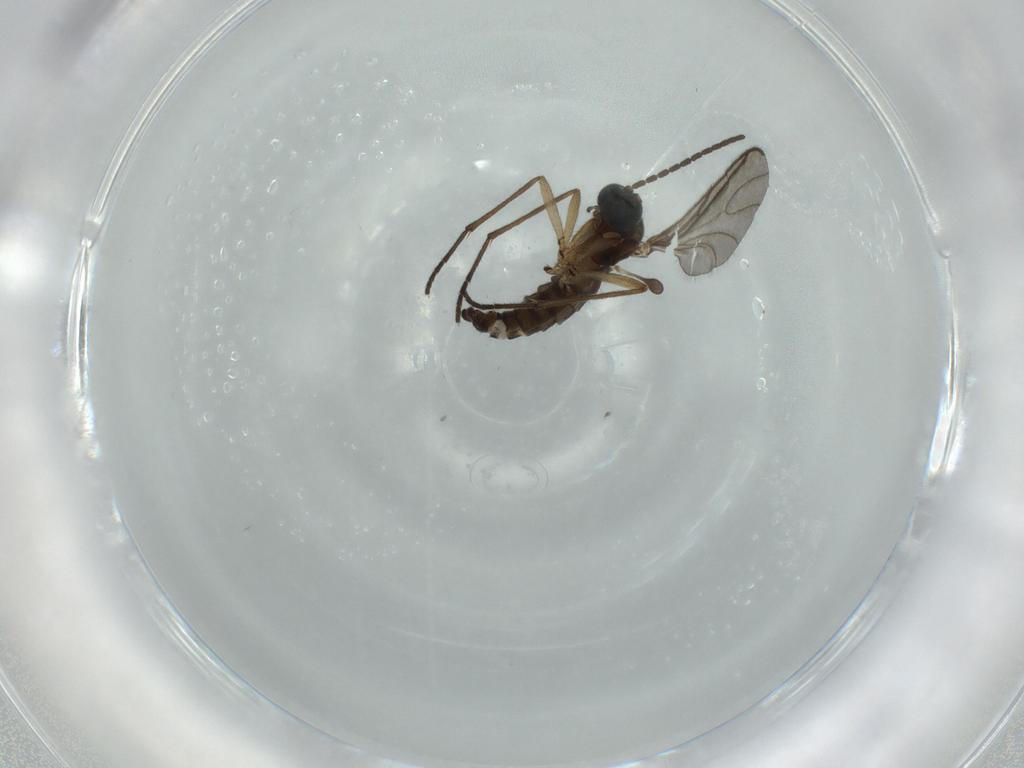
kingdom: Animalia
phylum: Arthropoda
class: Insecta
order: Diptera
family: Sciaridae
